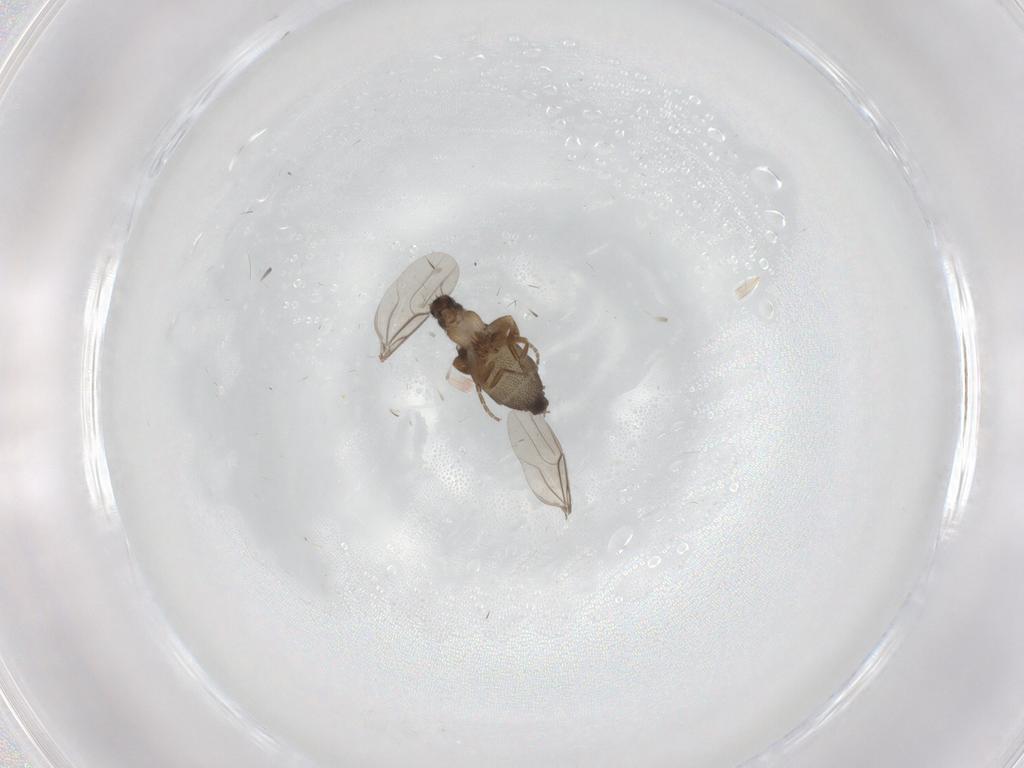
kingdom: Animalia
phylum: Arthropoda
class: Insecta
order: Diptera
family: Phoridae
